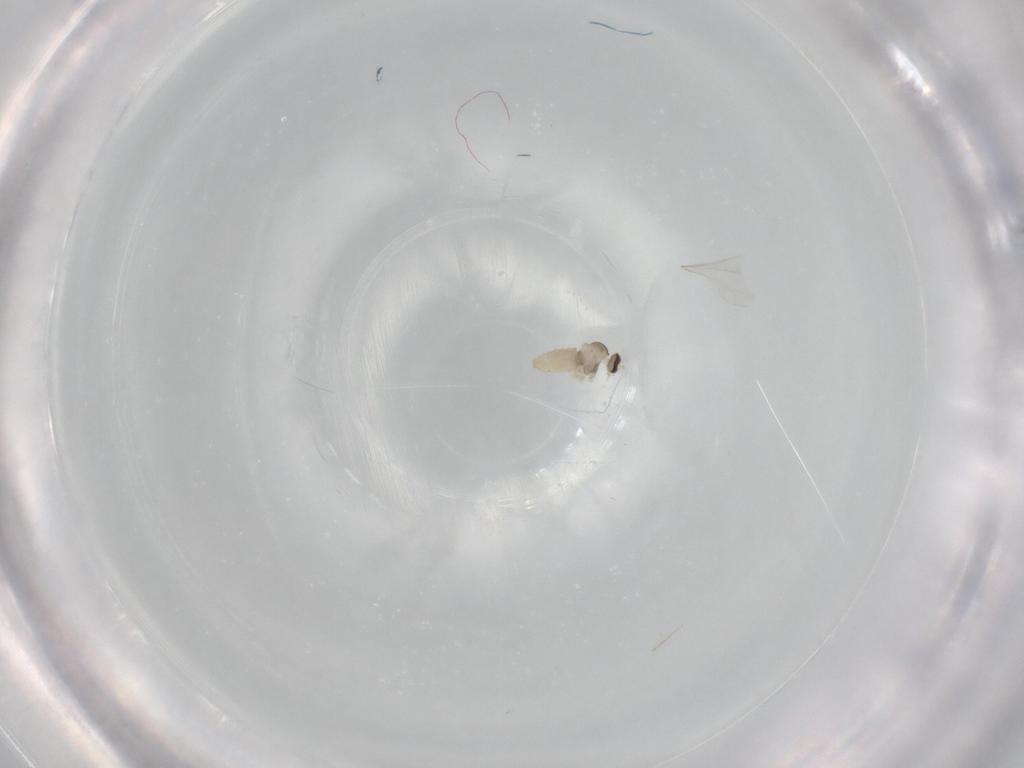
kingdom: Animalia
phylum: Arthropoda
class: Insecta
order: Diptera
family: Cecidomyiidae
